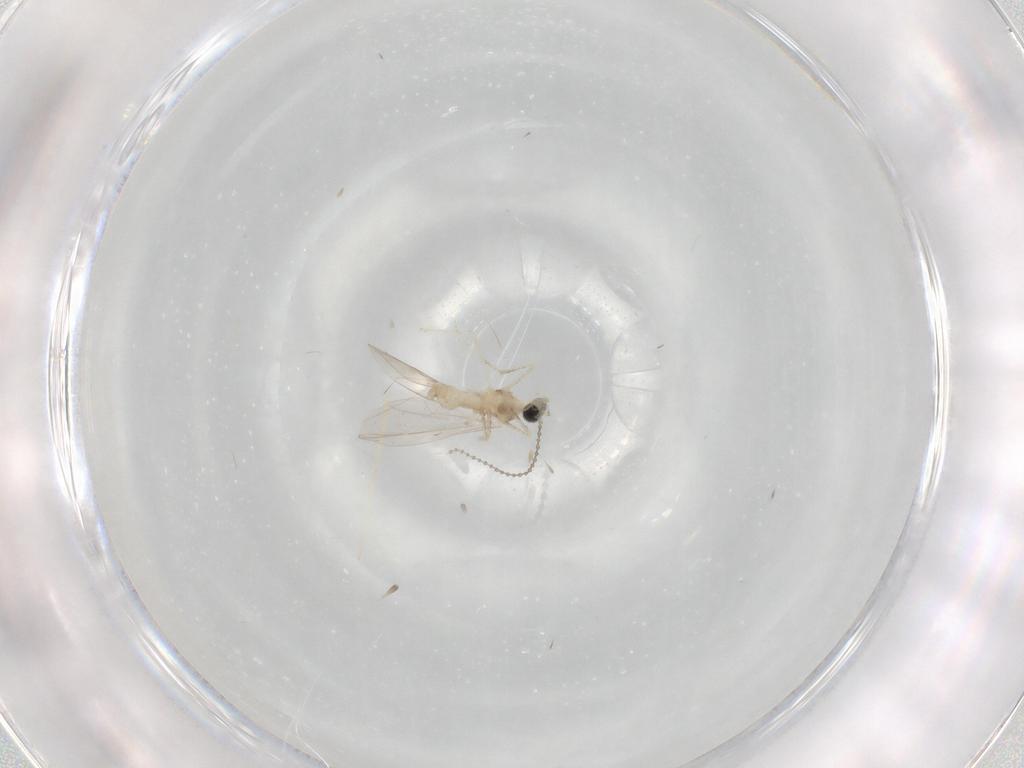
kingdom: Animalia
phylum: Arthropoda
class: Insecta
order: Diptera
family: Cecidomyiidae
